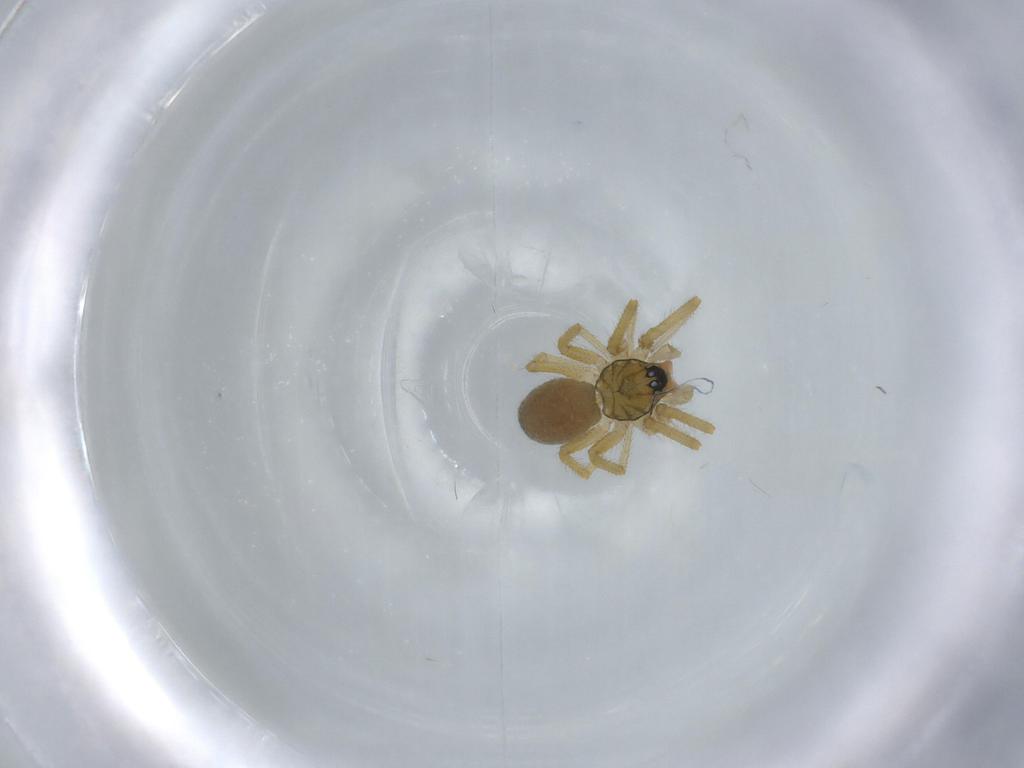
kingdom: Animalia
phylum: Arthropoda
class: Arachnida
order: Araneae
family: Linyphiidae
